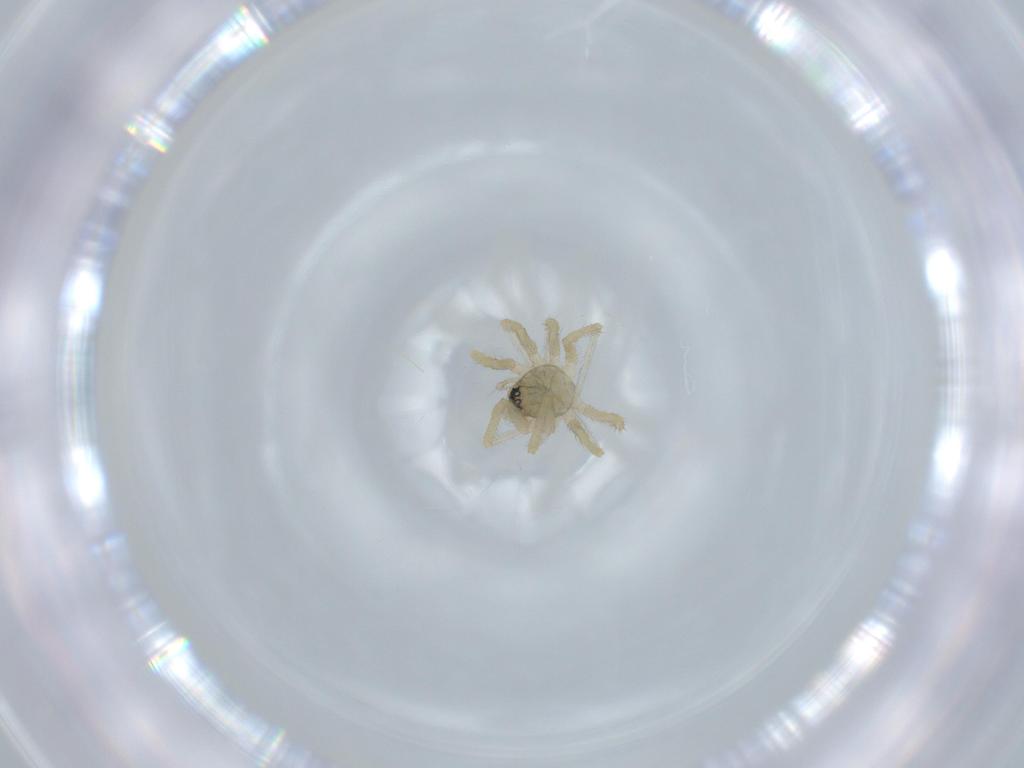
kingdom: Animalia
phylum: Arthropoda
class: Arachnida
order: Araneae
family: Linyphiidae
